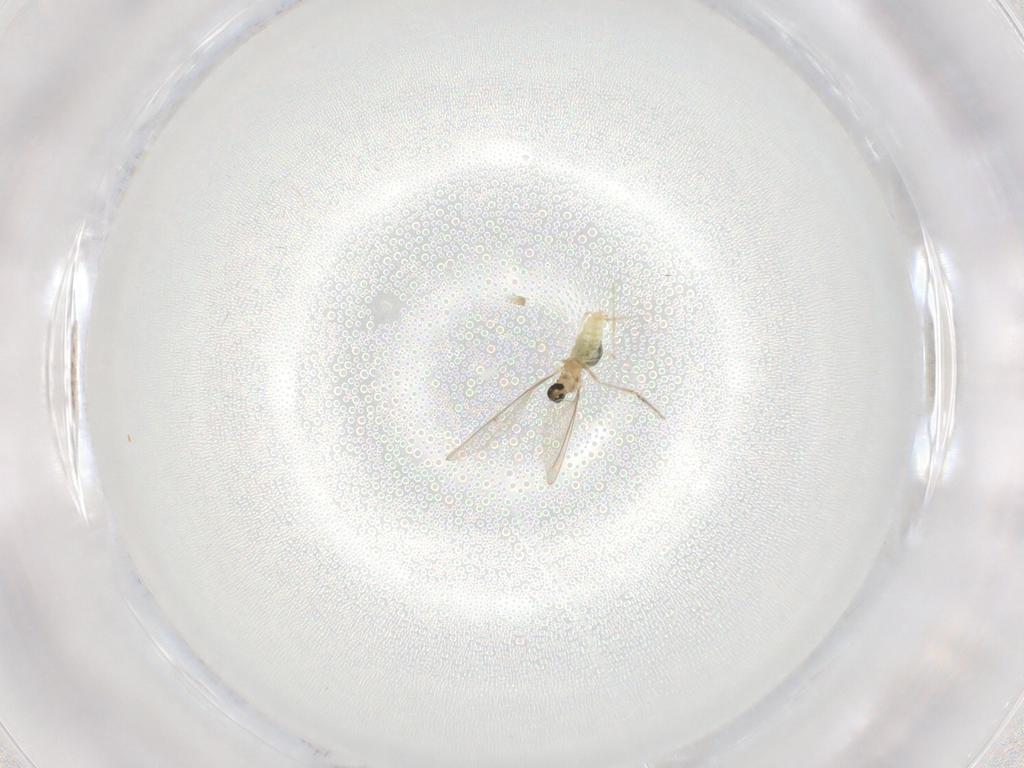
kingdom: Animalia
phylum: Arthropoda
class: Insecta
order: Diptera
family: Cecidomyiidae
